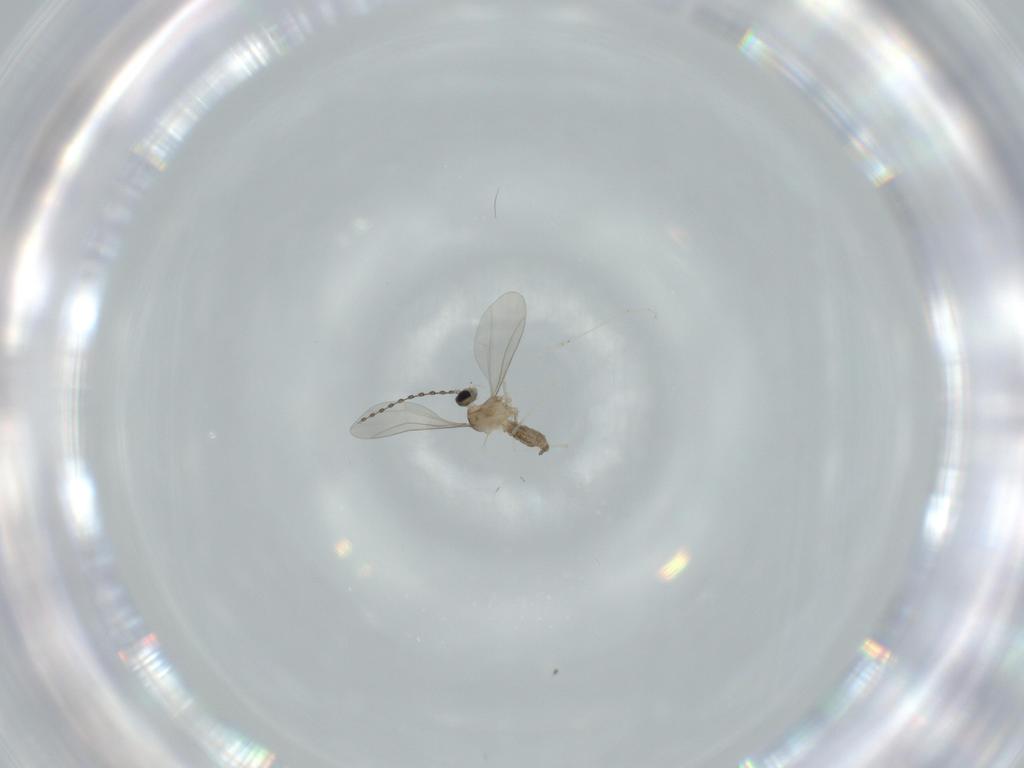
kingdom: Animalia
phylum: Arthropoda
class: Insecta
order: Diptera
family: Cecidomyiidae
